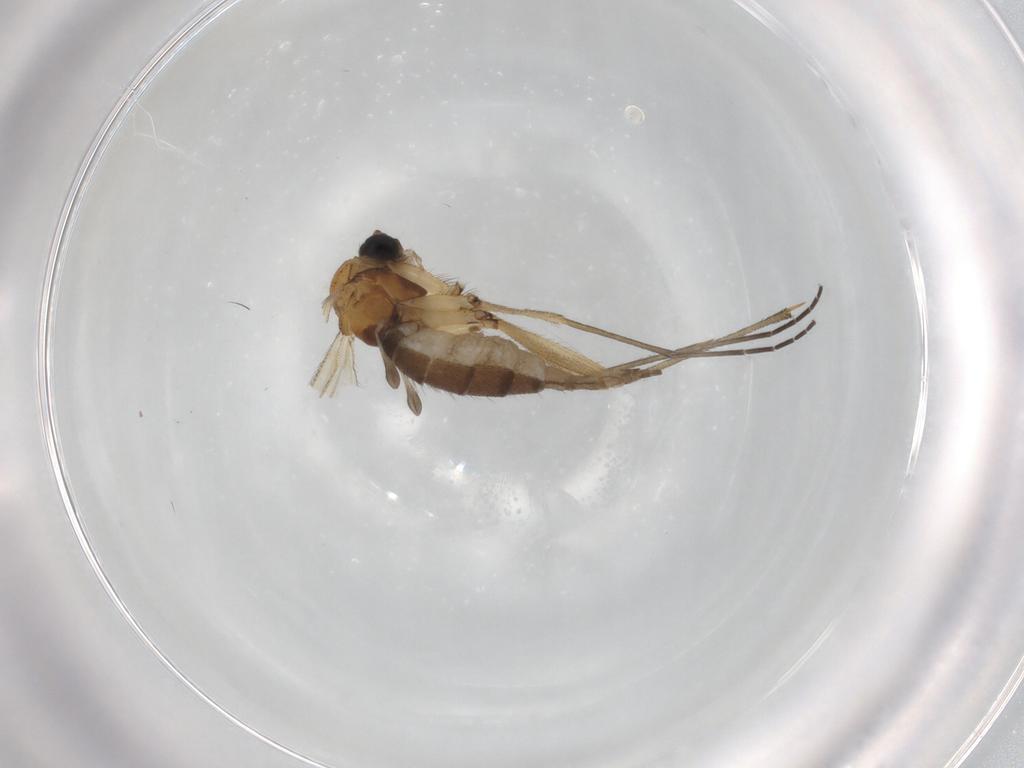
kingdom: Animalia
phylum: Arthropoda
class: Insecta
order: Diptera
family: Sciaridae
